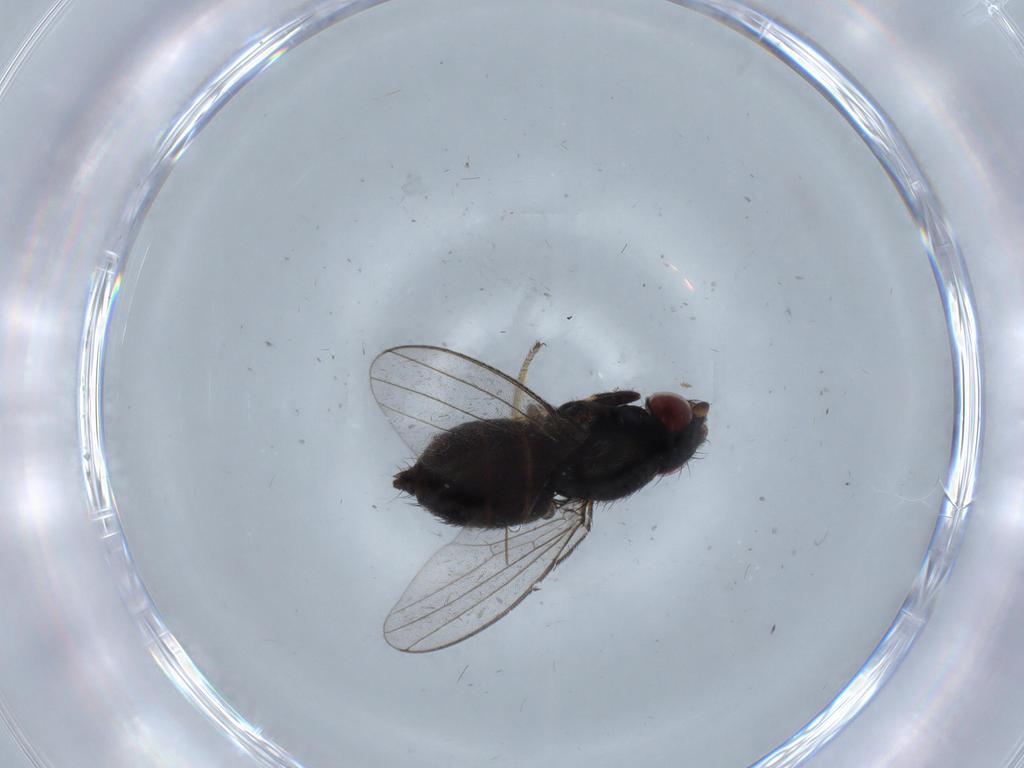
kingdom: Animalia
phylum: Arthropoda
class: Insecta
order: Diptera
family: Milichiidae
